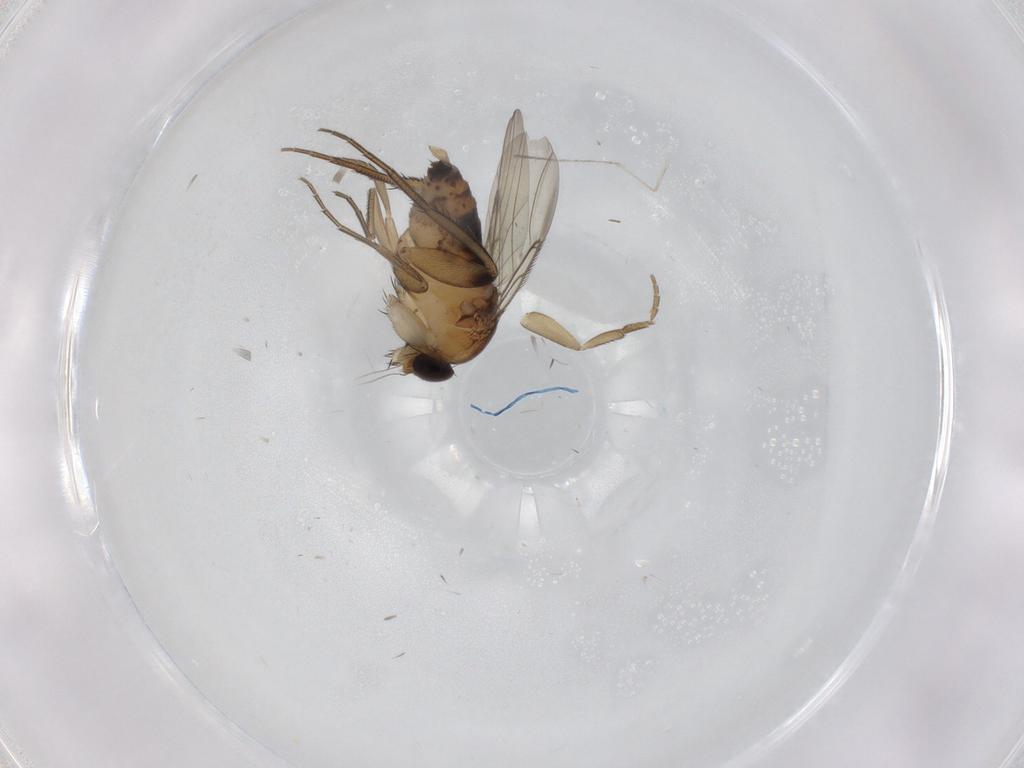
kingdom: Animalia
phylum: Arthropoda
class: Insecta
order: Diptera
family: Phoridae
